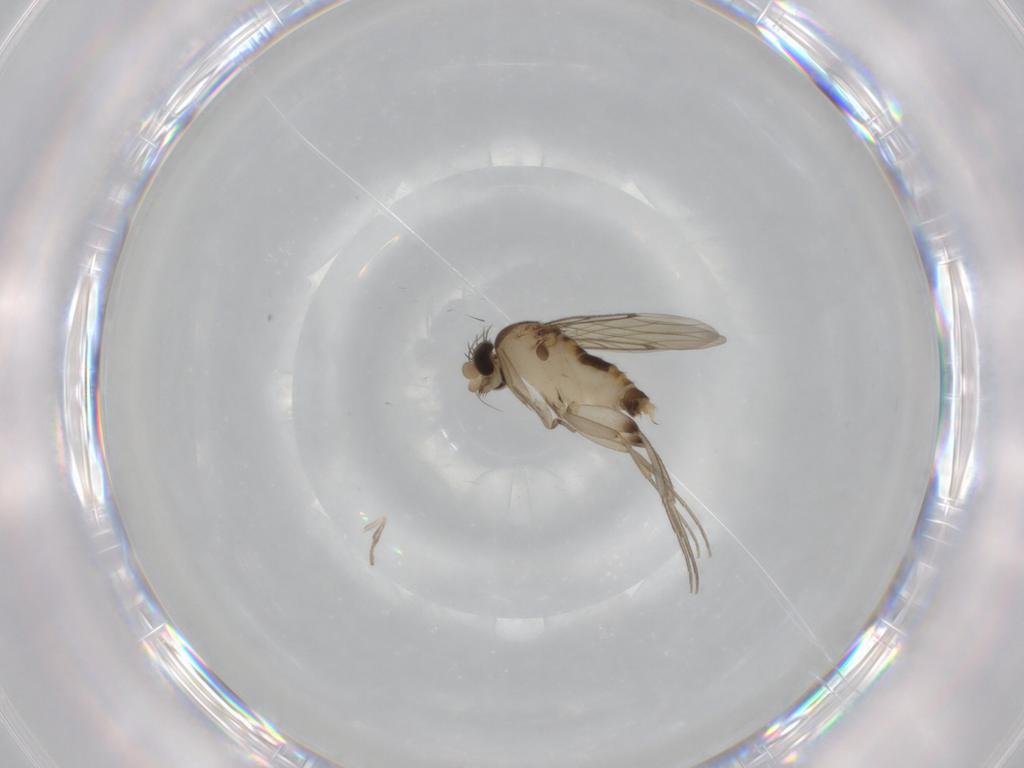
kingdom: Animalia
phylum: Arthropoda
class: Insecta
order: Diptera
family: Phoridae
